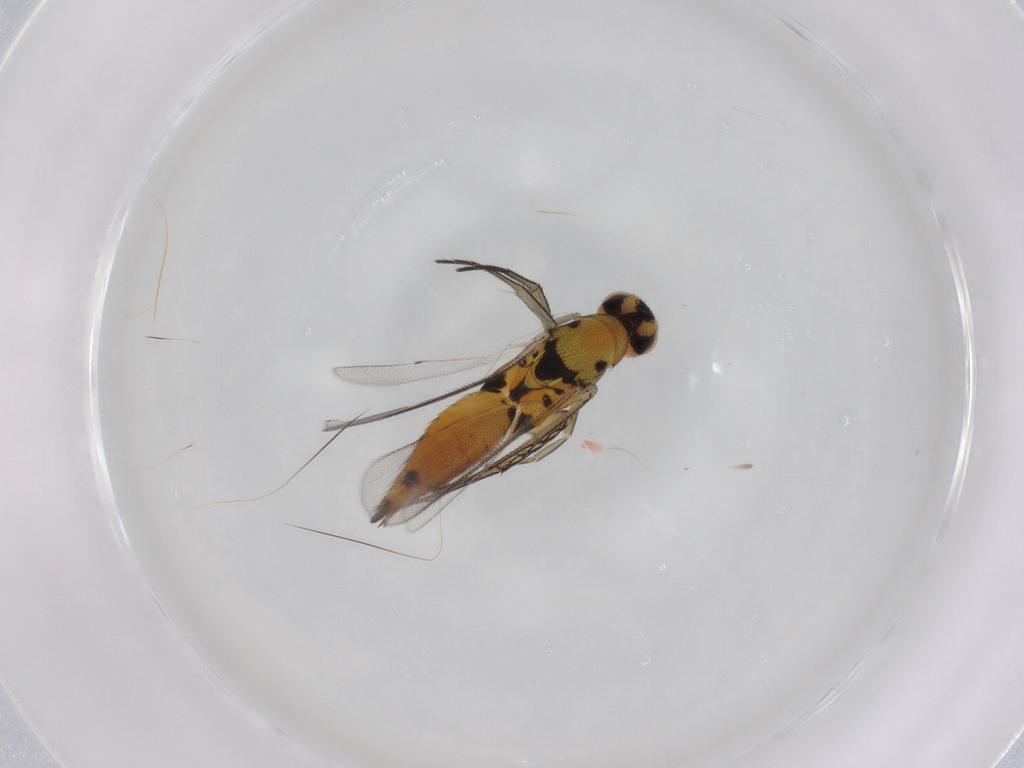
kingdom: Animalia
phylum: Arthropoda
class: Insecta
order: Hymenoptera
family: Eulophidae
